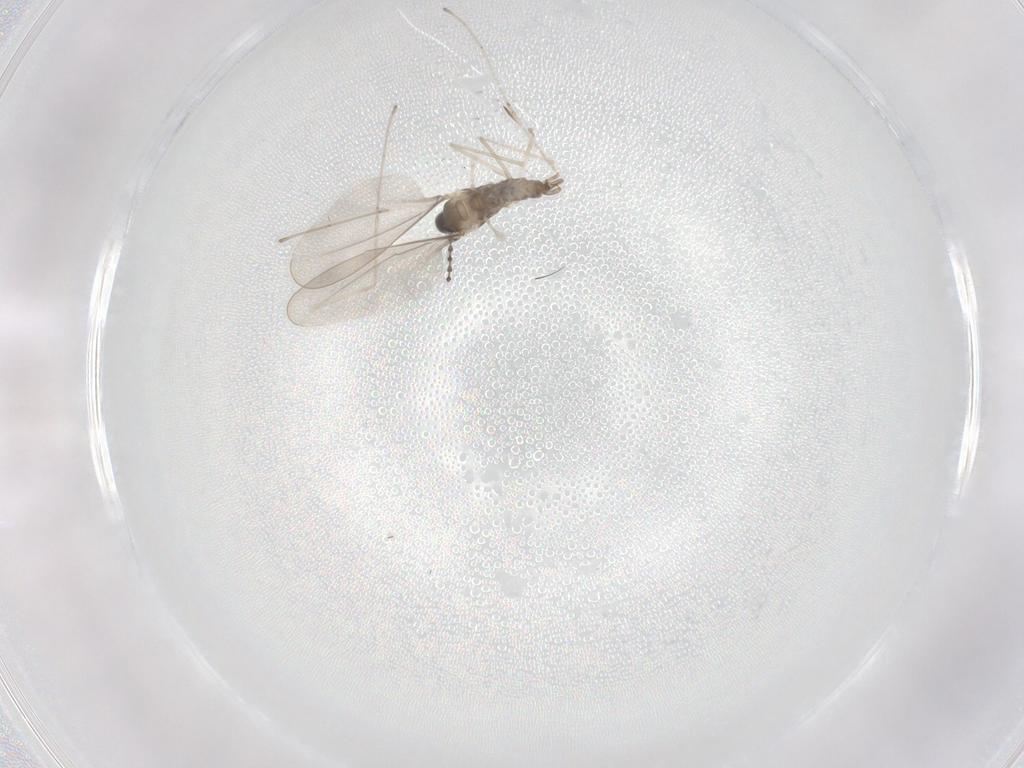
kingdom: Animalia
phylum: Arthropoda
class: Insecta
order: Diptera
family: Cecidomyiidae
